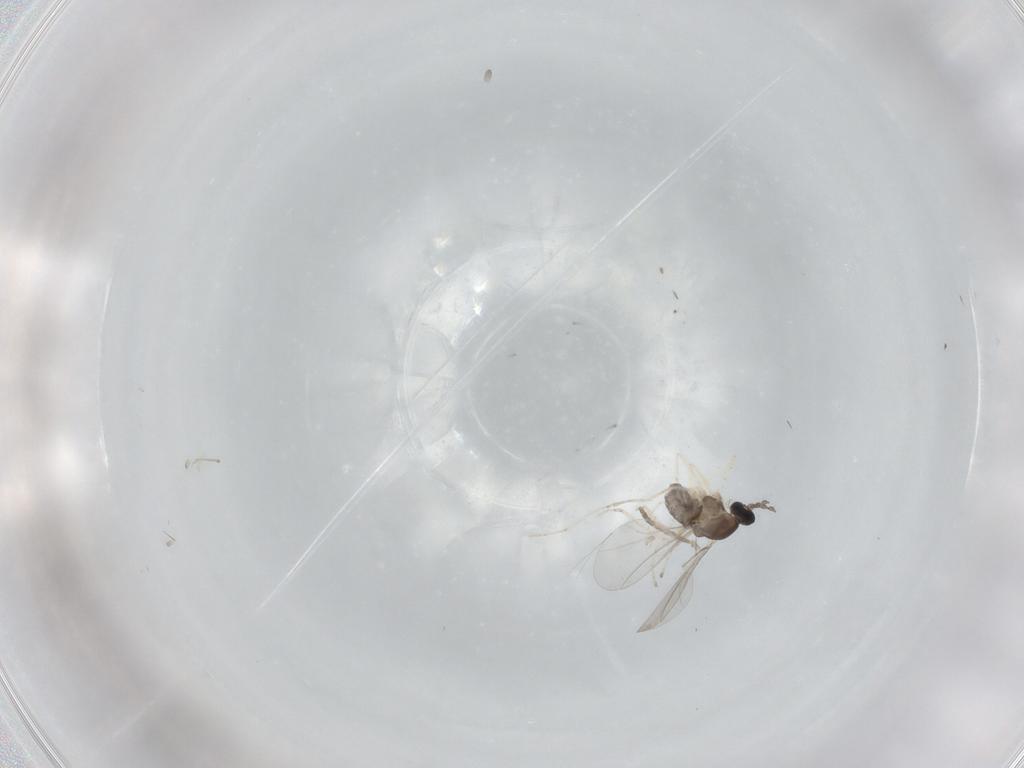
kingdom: Animalia
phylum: Arthropoda
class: Insecta
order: Diptera
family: Cecidomyiidae
